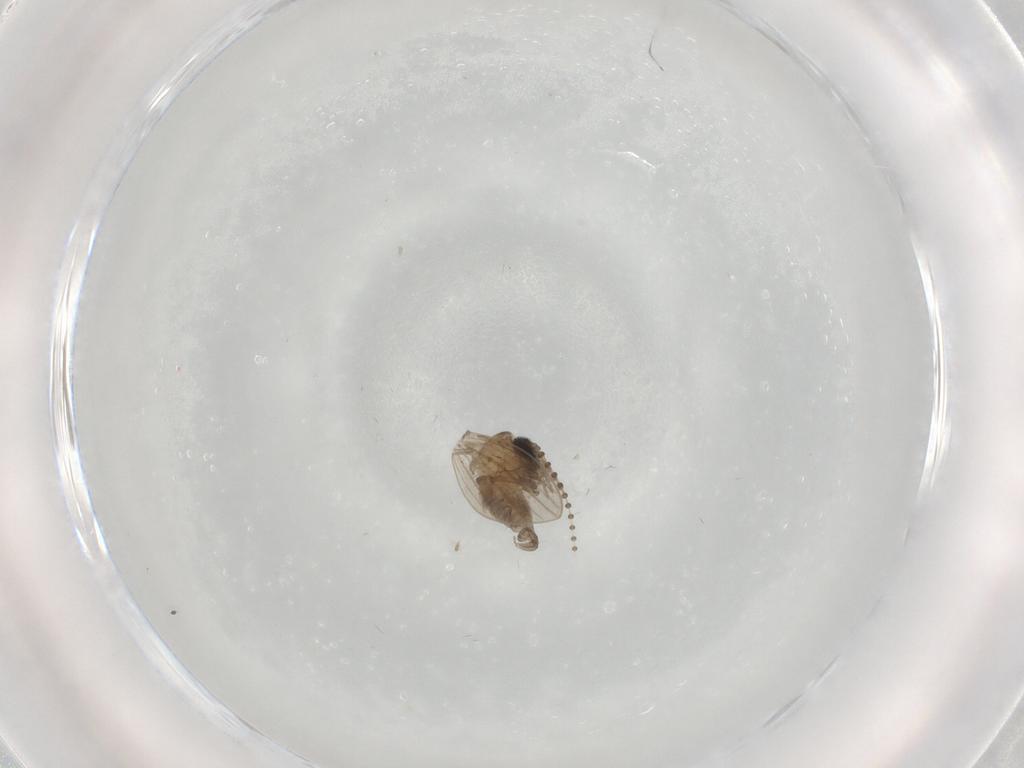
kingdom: Animalia
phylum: Arthropoda
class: Insecta
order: Diptera
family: Psychodidae
